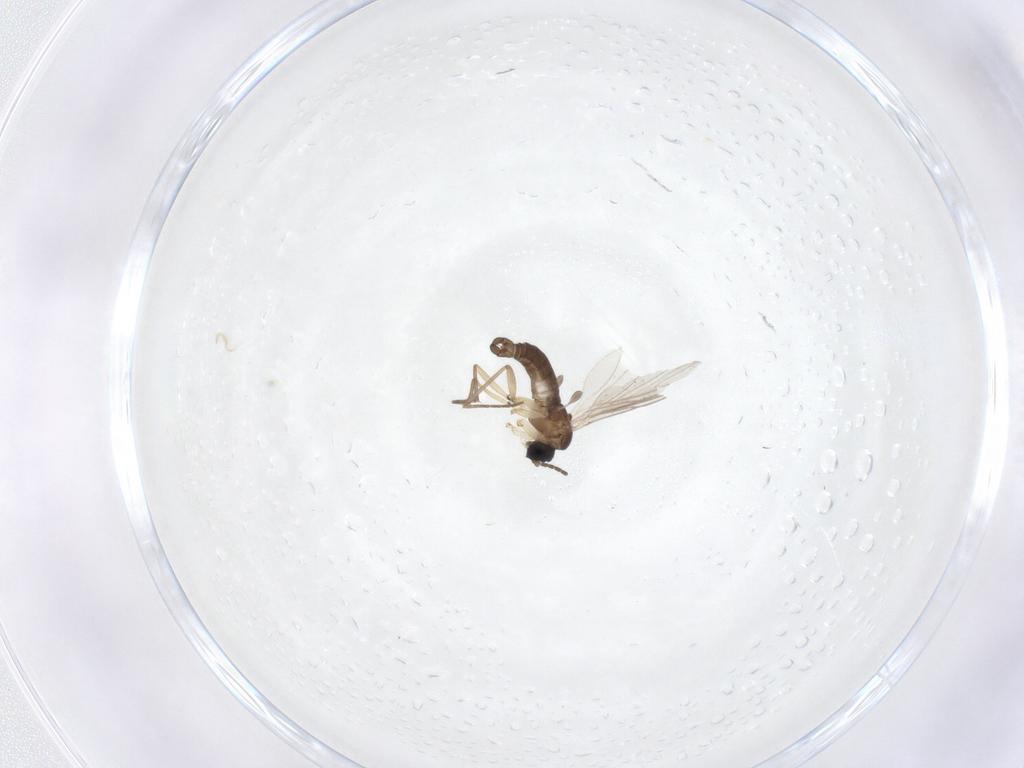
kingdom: Animalia
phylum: Arthropoda
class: Insecta
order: Diptera
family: Sciaridae
